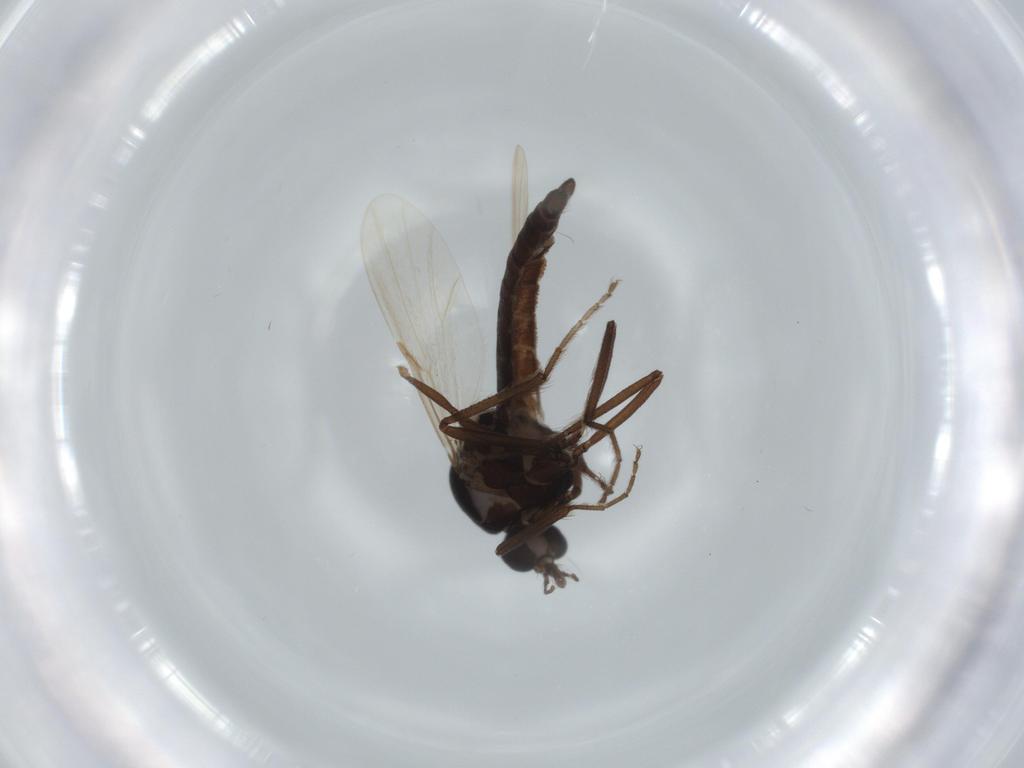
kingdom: Animalia
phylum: Arthropoda
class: Insecta
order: Diptera
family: Ceratopogonidae
